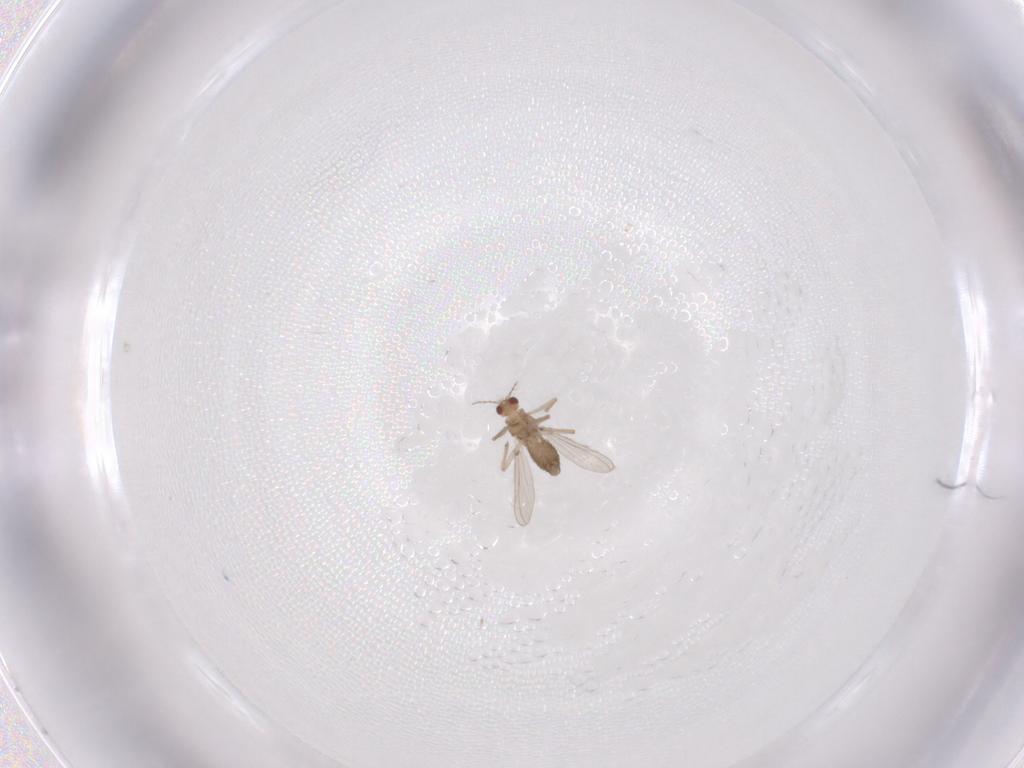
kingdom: Animalia
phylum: Arthropoda
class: Insecta
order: Diptera
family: Chironomidae
